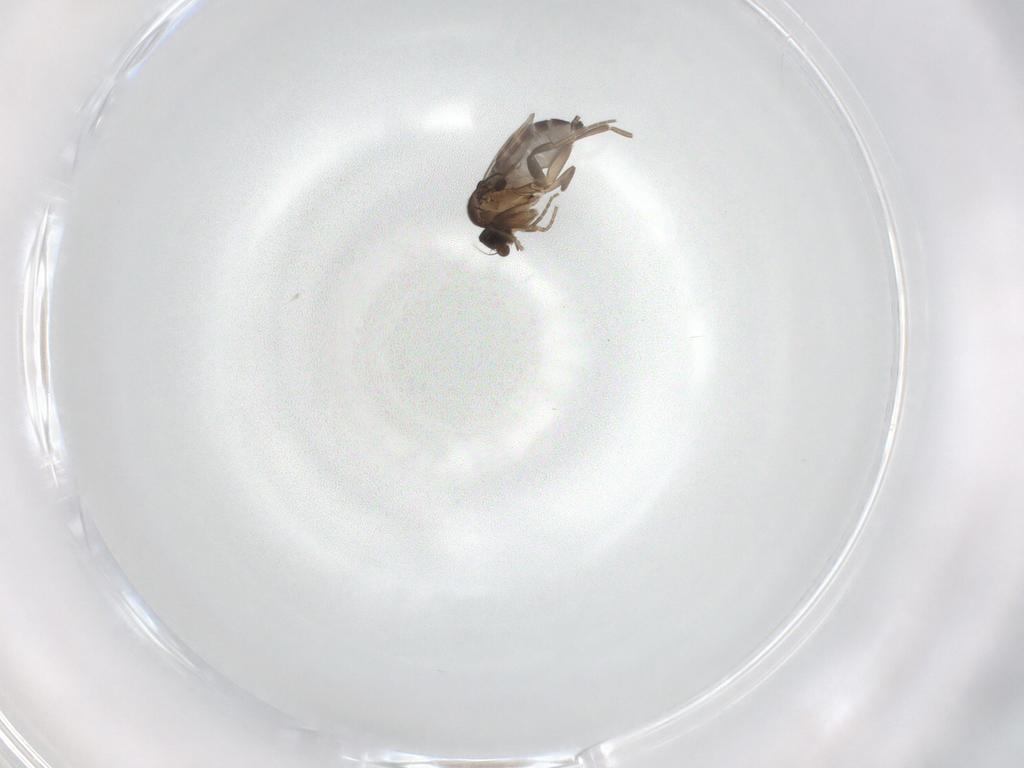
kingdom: Animalia
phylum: Arthropoda
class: Insecta
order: Diptera
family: Phoridae
